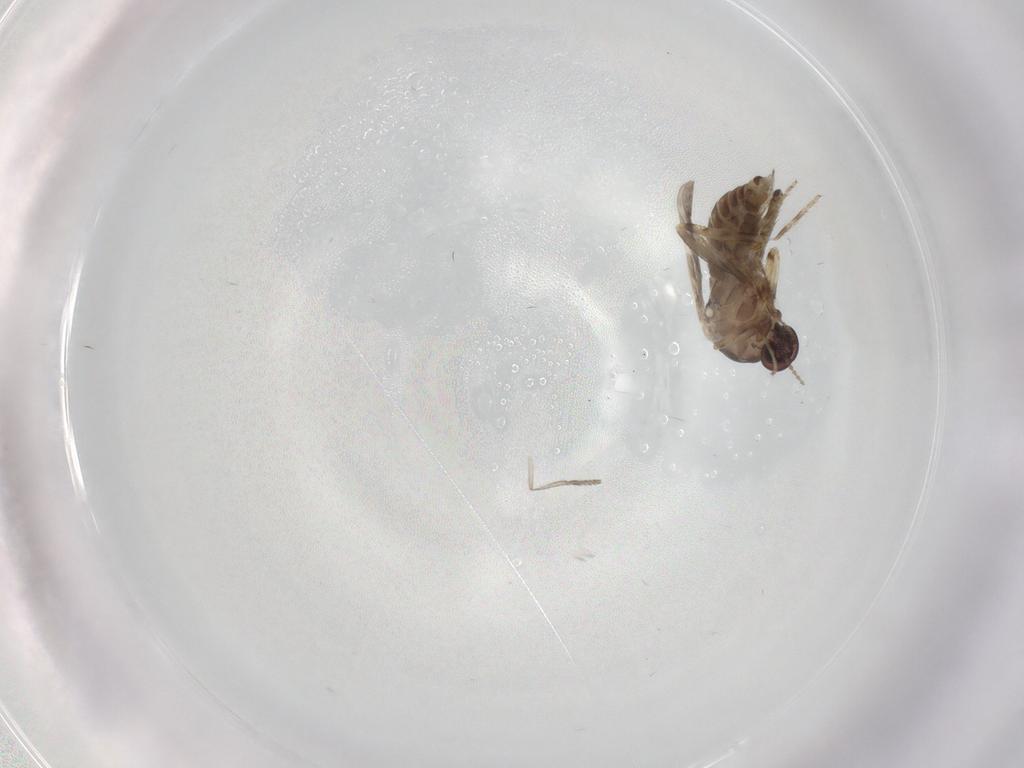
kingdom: Animalia
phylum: Arthropoda
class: Insecta
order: Diptera
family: Ceratopogonidae
